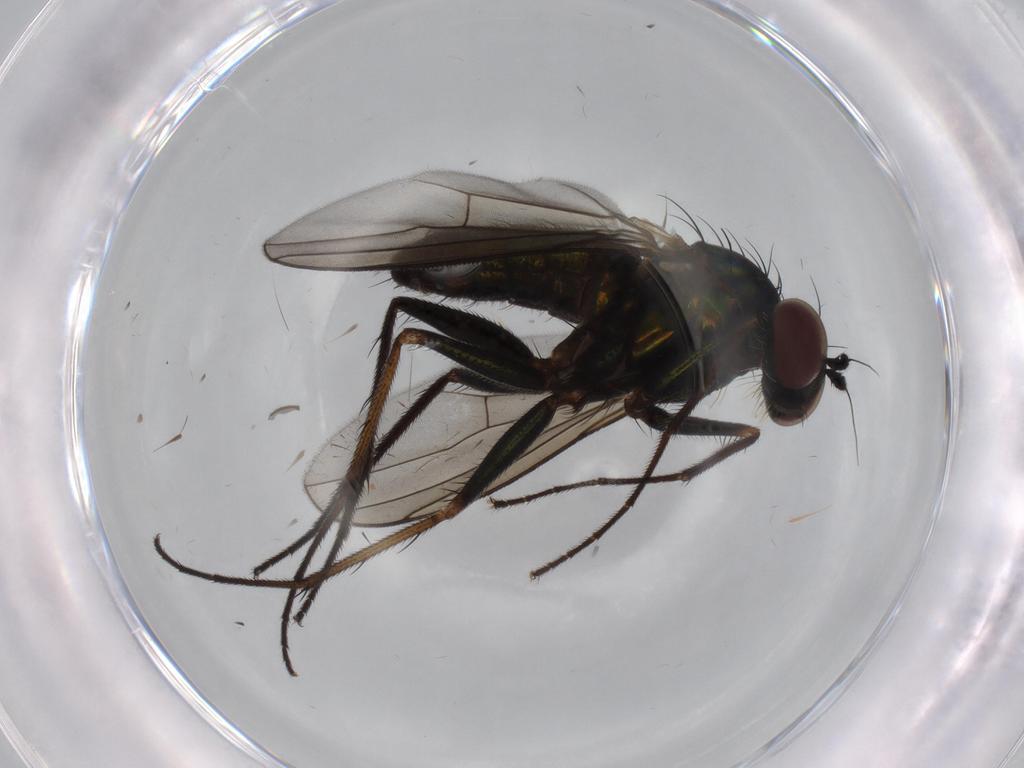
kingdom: Animalia
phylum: Arthropoda
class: Insecta
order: Diptera
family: Dolichopodidae
